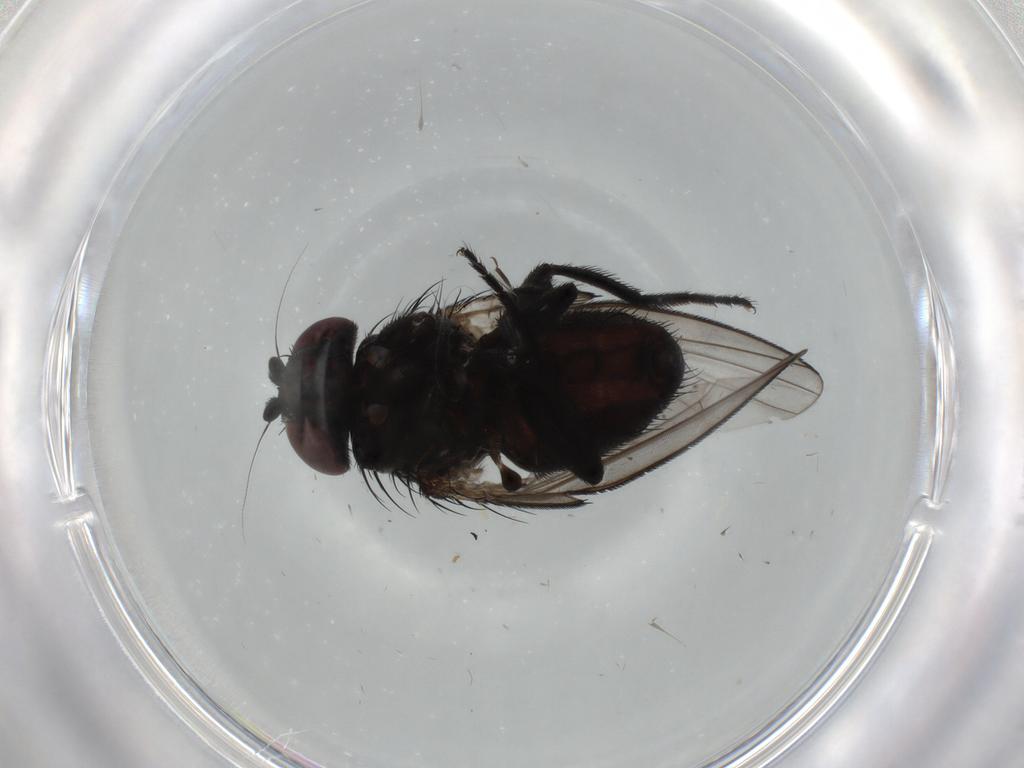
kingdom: Animalia
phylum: Arthropoda
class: Insecta
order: Diptera
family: Milichiidae
